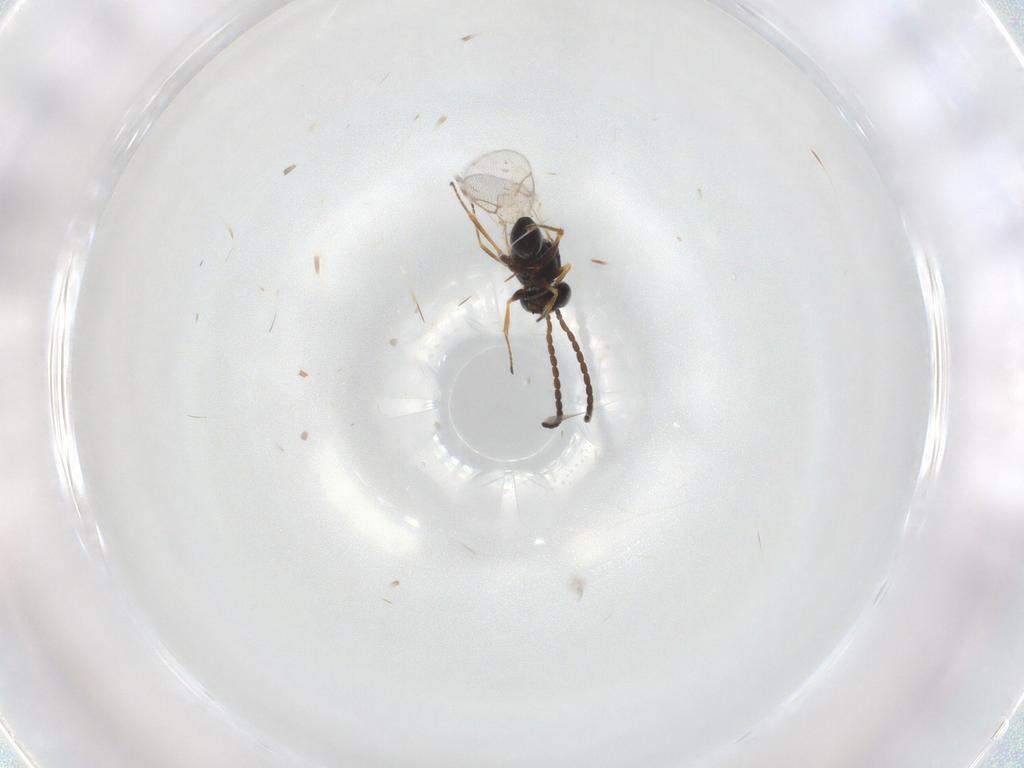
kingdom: Animalia
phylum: Arthropoda
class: Insecta
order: Hymenoptera
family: Figitidae
